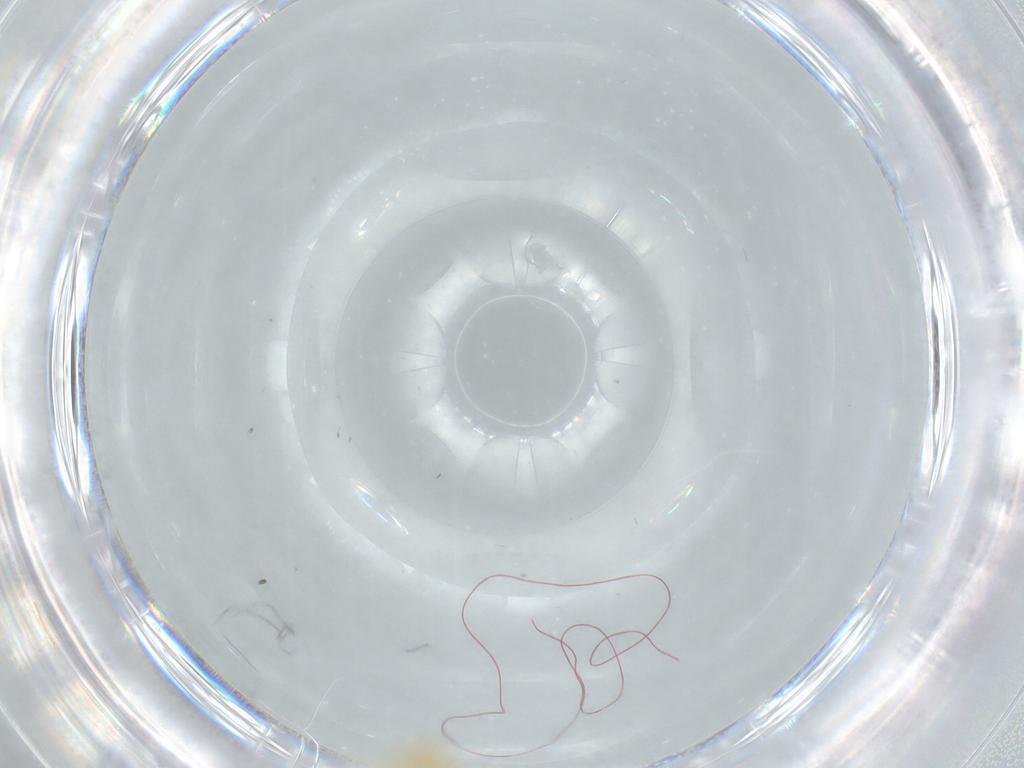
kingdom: Animalia
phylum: Arthropoda
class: Insecta
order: Hemiptera
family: Tropiduchidae
